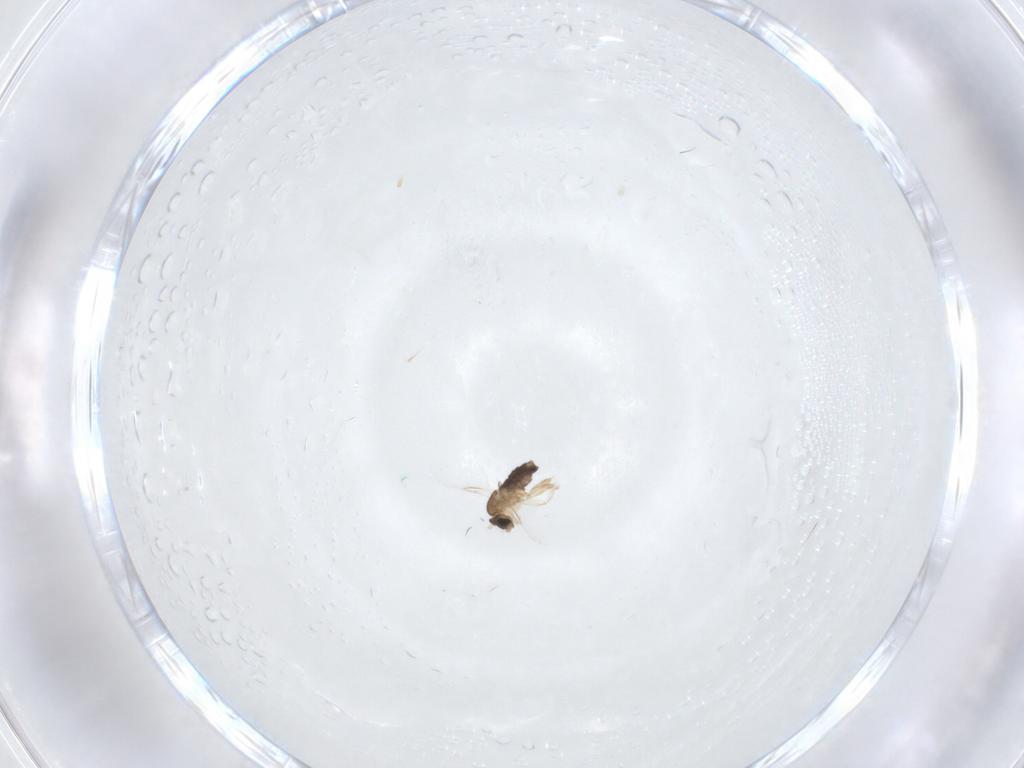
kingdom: Animalia
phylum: Arthropoda
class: Insecta
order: Diptera
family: Phoridae
